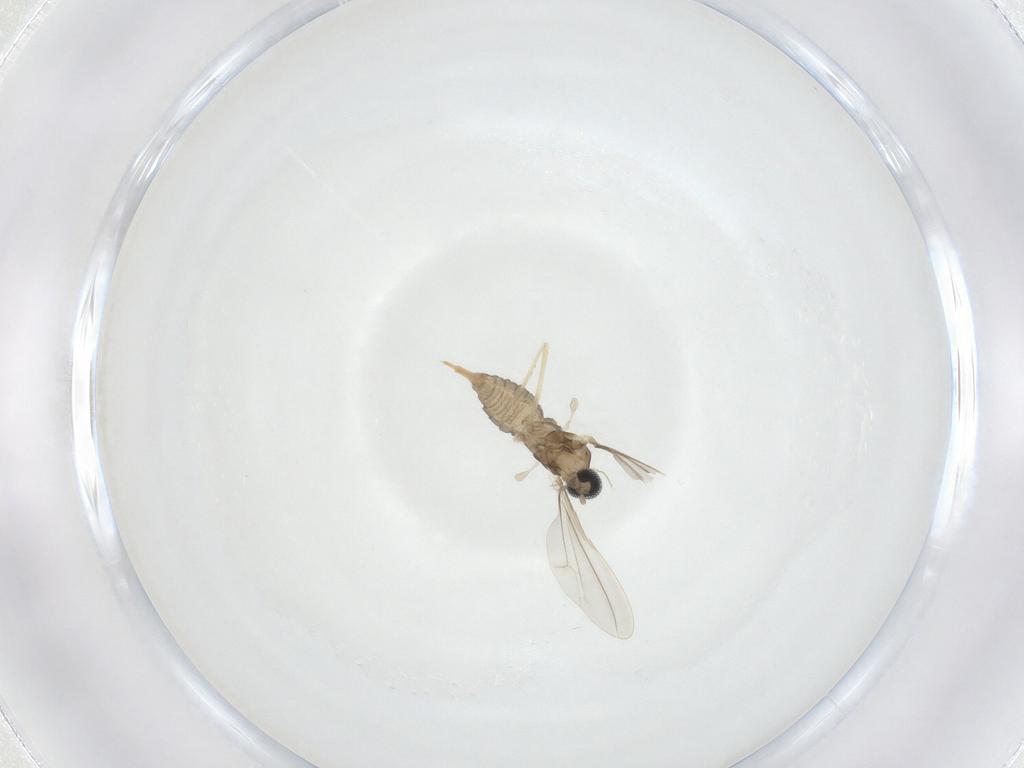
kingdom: Animalia
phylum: Arthropoda
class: Insecta
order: Diptera
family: Cecidomyiidae
